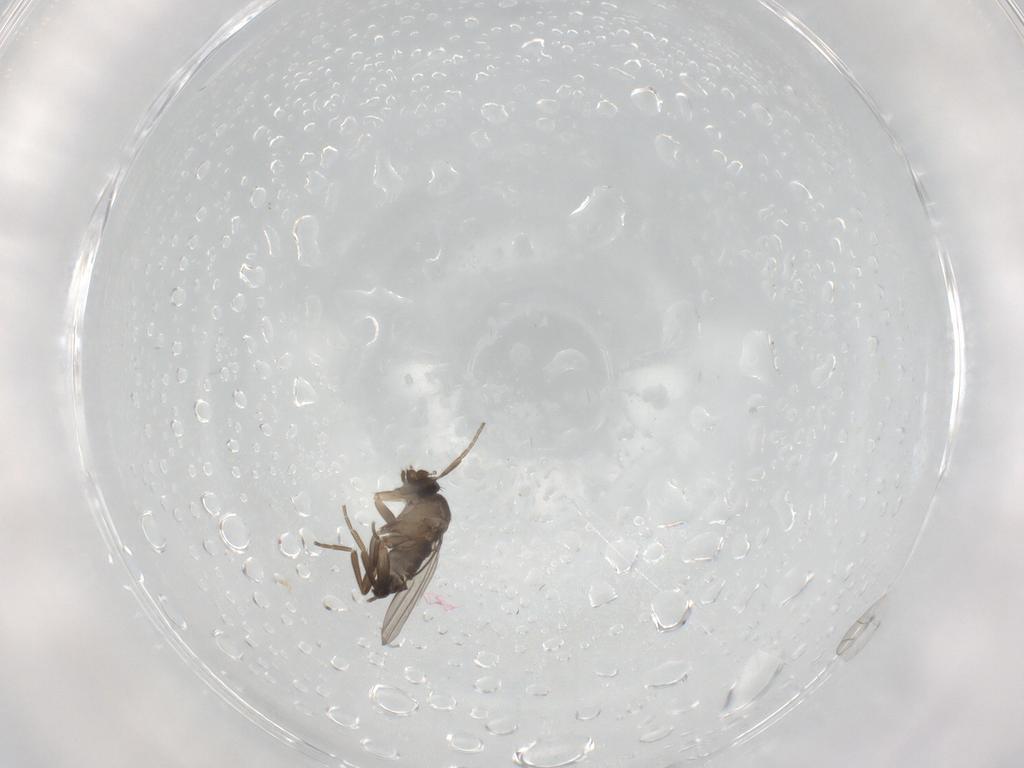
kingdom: Animalia
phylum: Arthropoda
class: Insecta
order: Diptera
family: Phoridae
